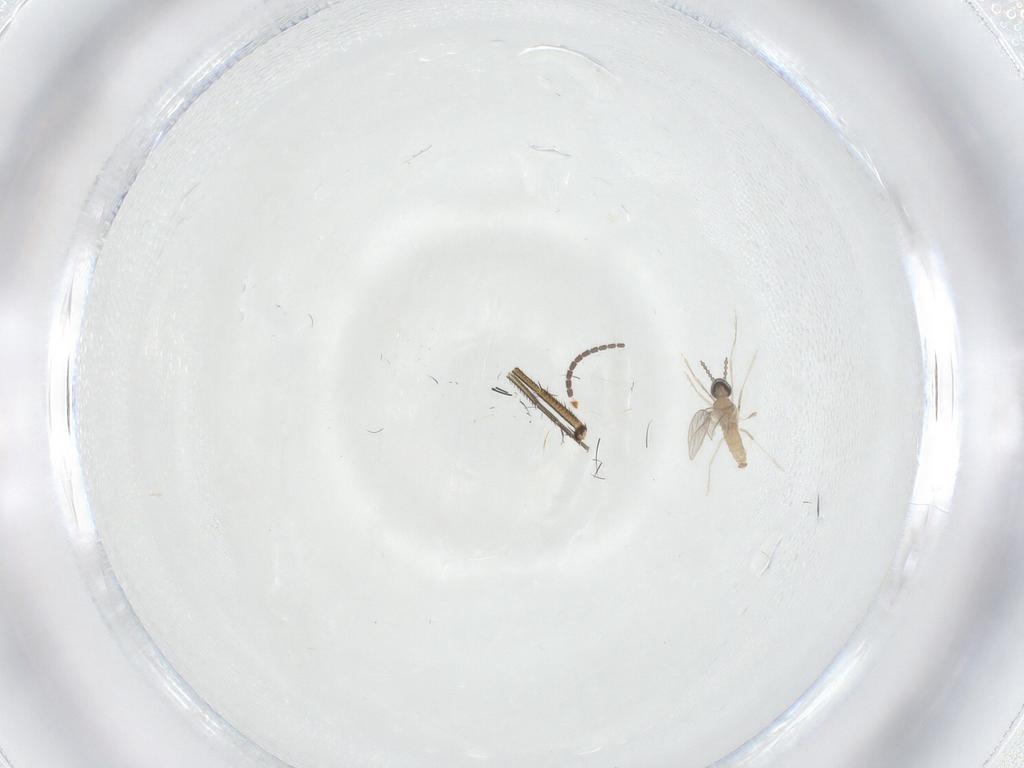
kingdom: Animalia
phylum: Arthropoda
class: Insecta
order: Diptera
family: Cecidomyiidae
